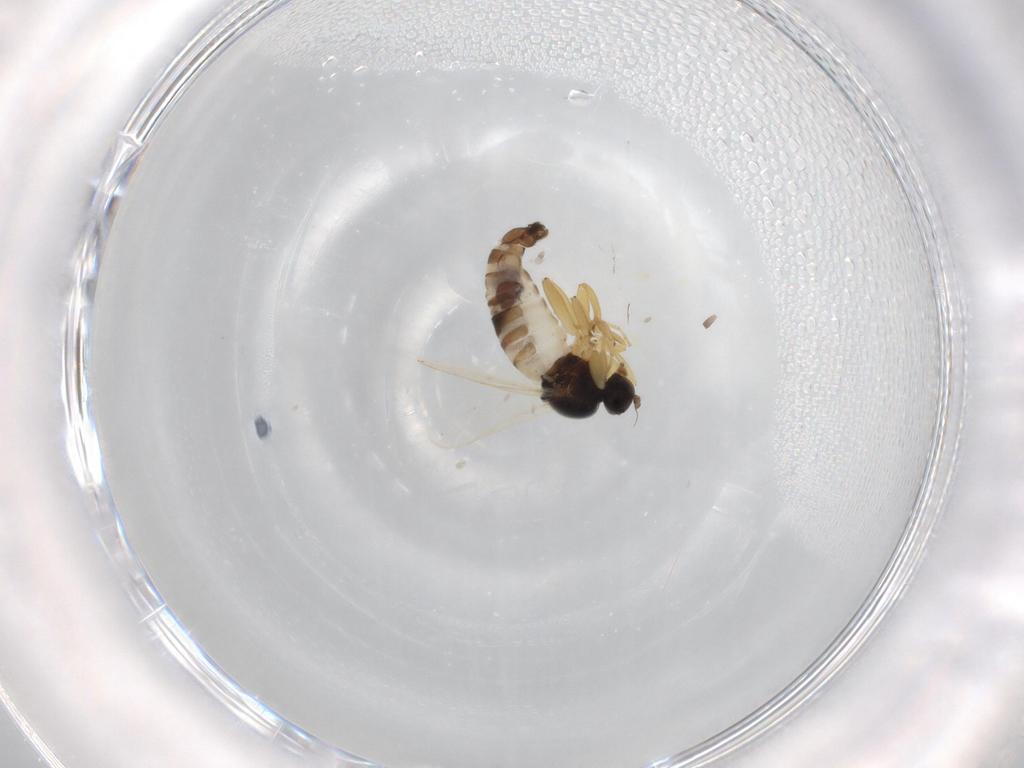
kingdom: Animalia
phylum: Arthropoda
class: Insecta
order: Diptera
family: Hybotidae
